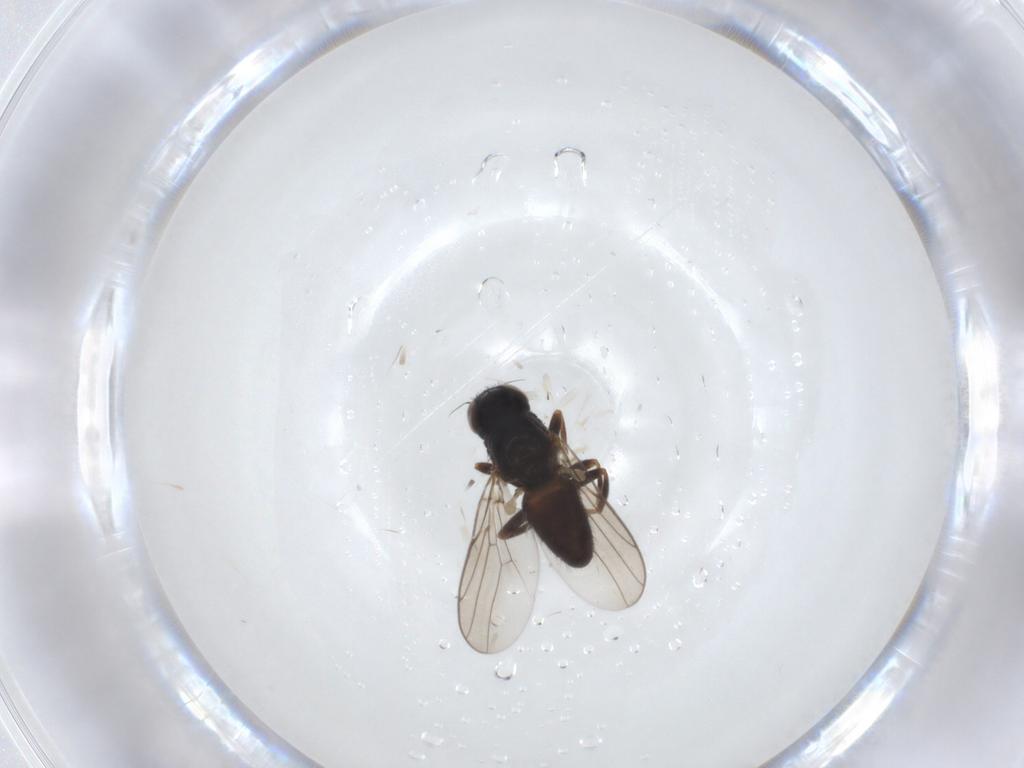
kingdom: Animalia
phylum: Arthropoda
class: Insecta
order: Diptera
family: Chloropidae
